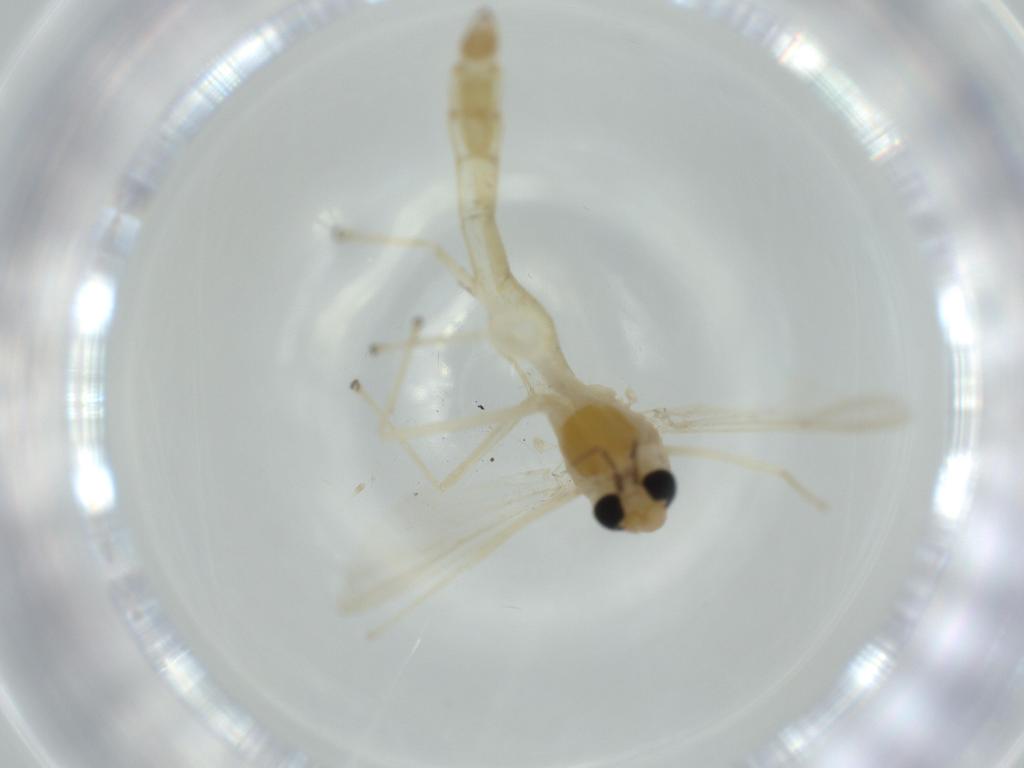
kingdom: Animalia
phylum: Arthropoda
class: Insecta
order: Diptera
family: Chironomidae
